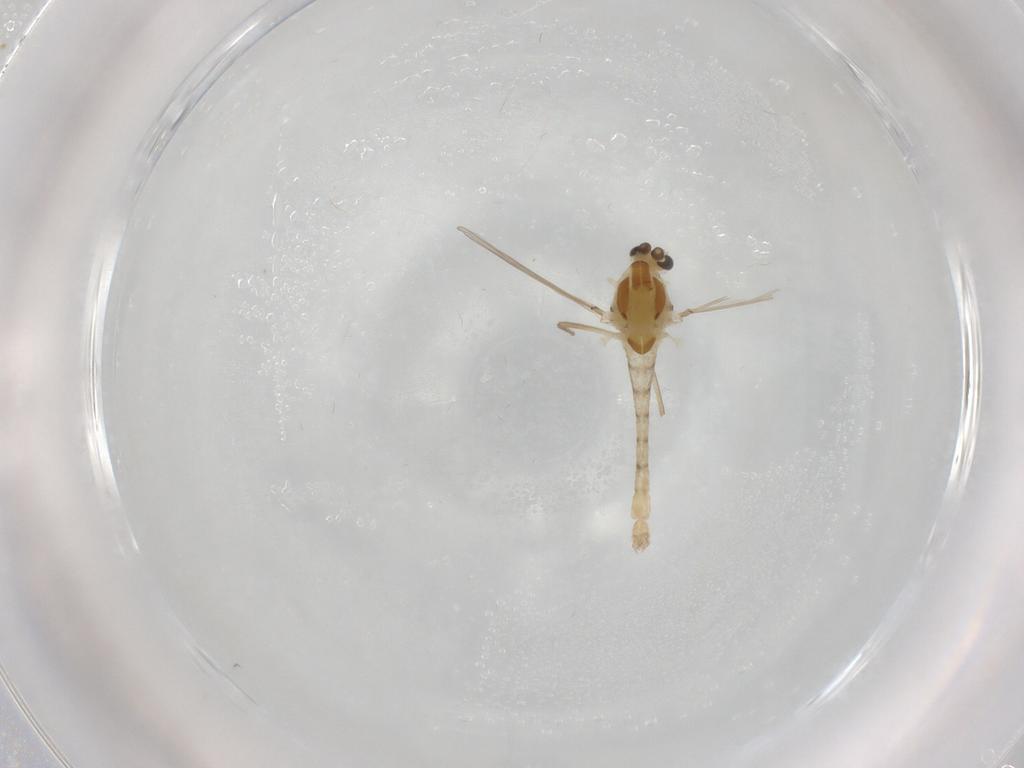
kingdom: Animalia
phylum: Arthropoda
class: Insecta
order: Diptera
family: Chironomidae
